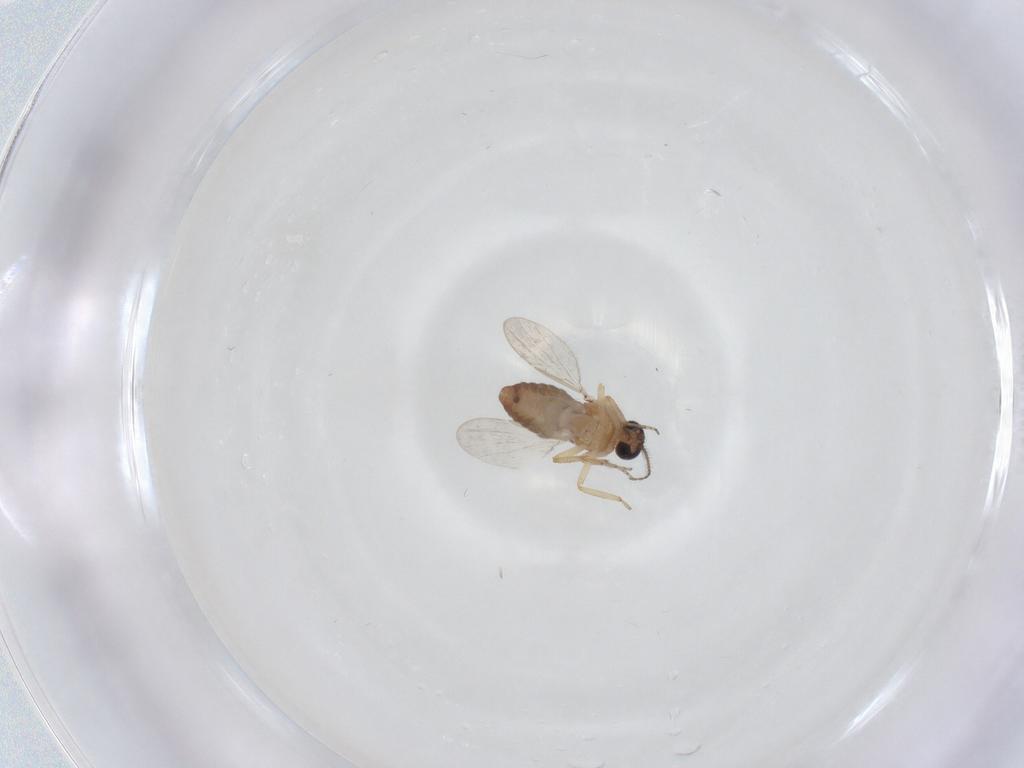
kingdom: Animalia
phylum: Arthropoda
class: Insecta
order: Diptera
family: Ceratopogonidae
